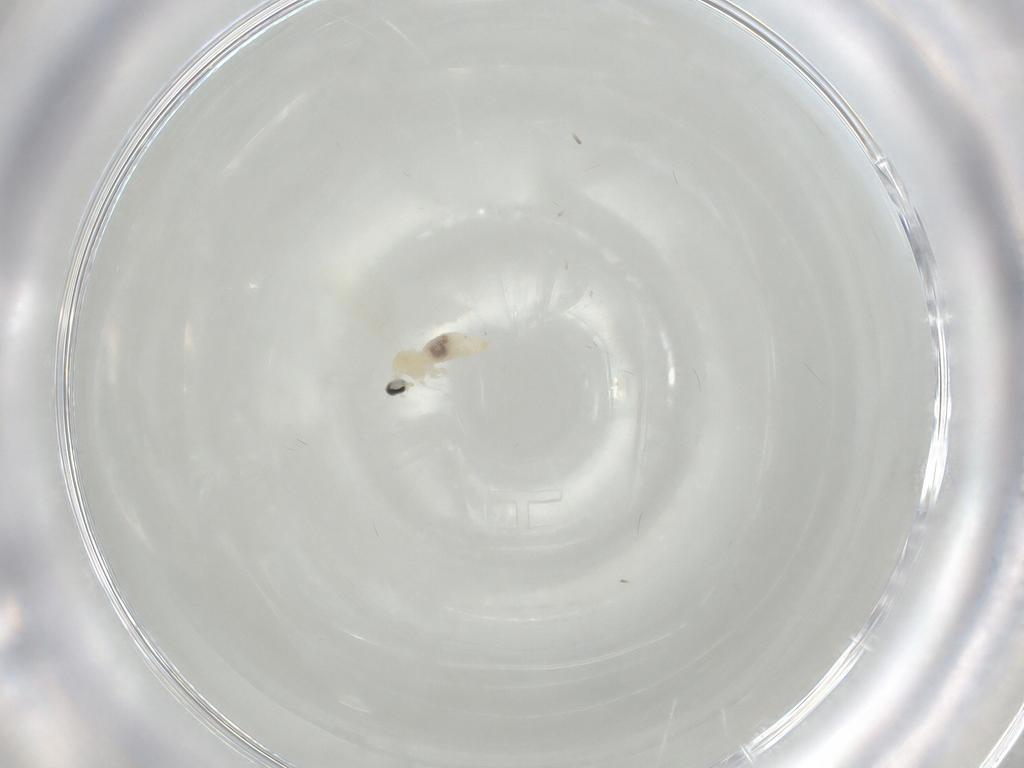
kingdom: Animalia
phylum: Arthropoda
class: Insecta
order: Diptera
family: Cecidomyiidae
